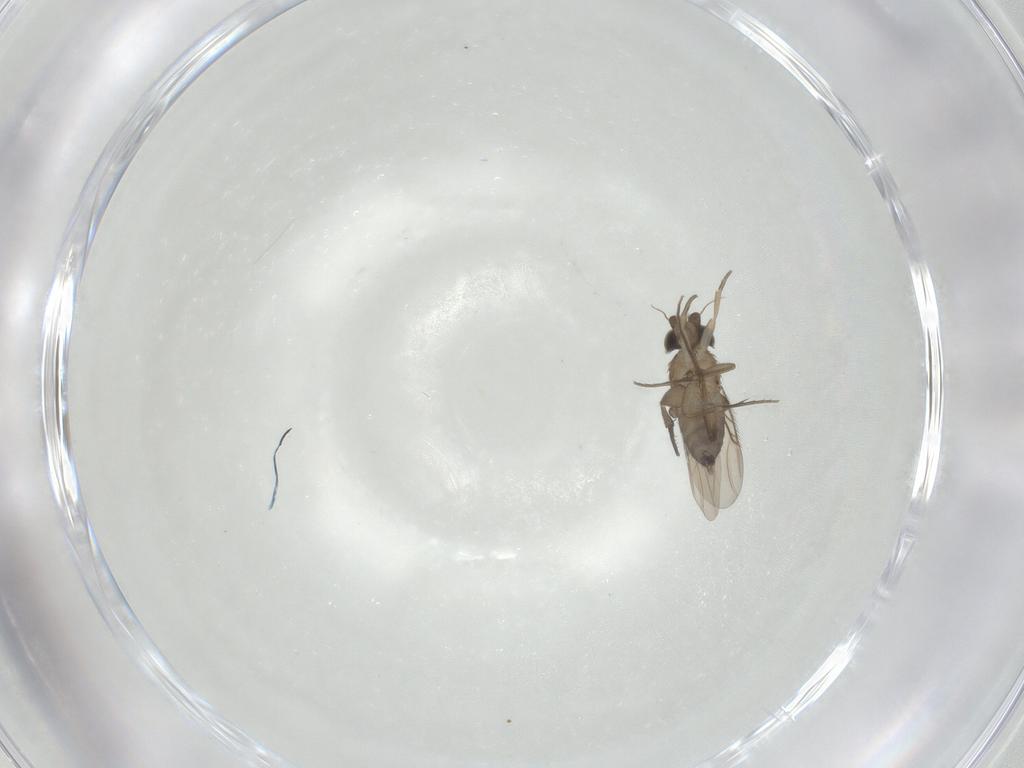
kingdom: Animalia
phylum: Arthropoda
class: Insecta
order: Diptera
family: Phoridae
